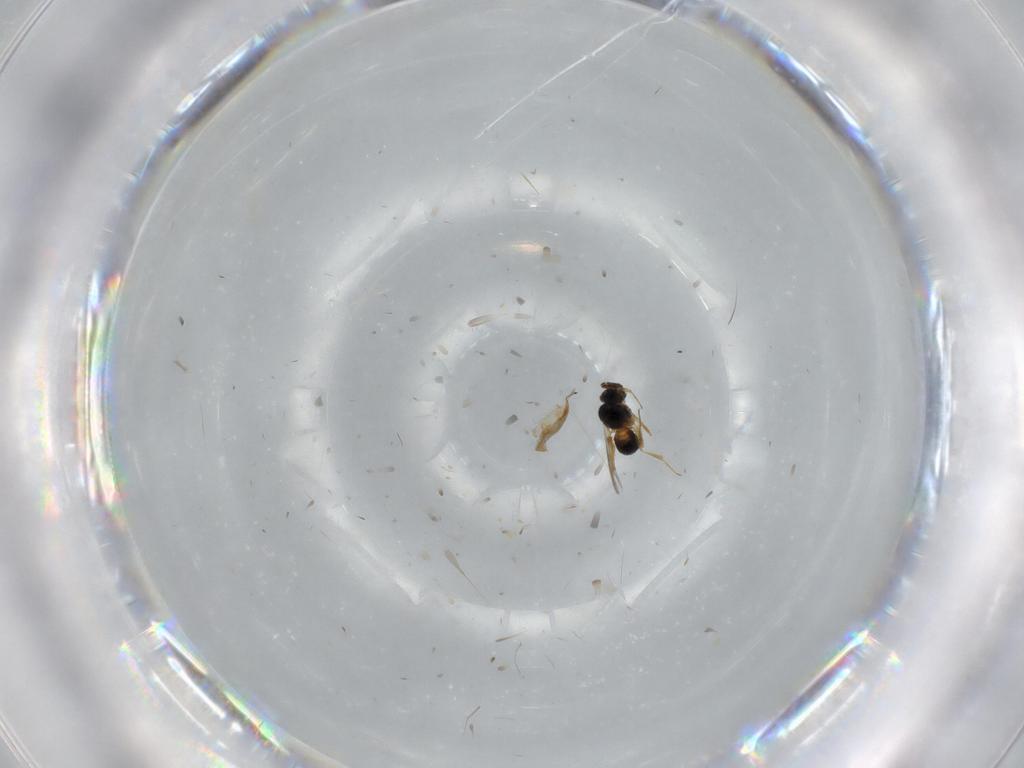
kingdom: Animalia
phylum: Arthropoda
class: Insecta
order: Hymenoptera
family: Scelionidae
